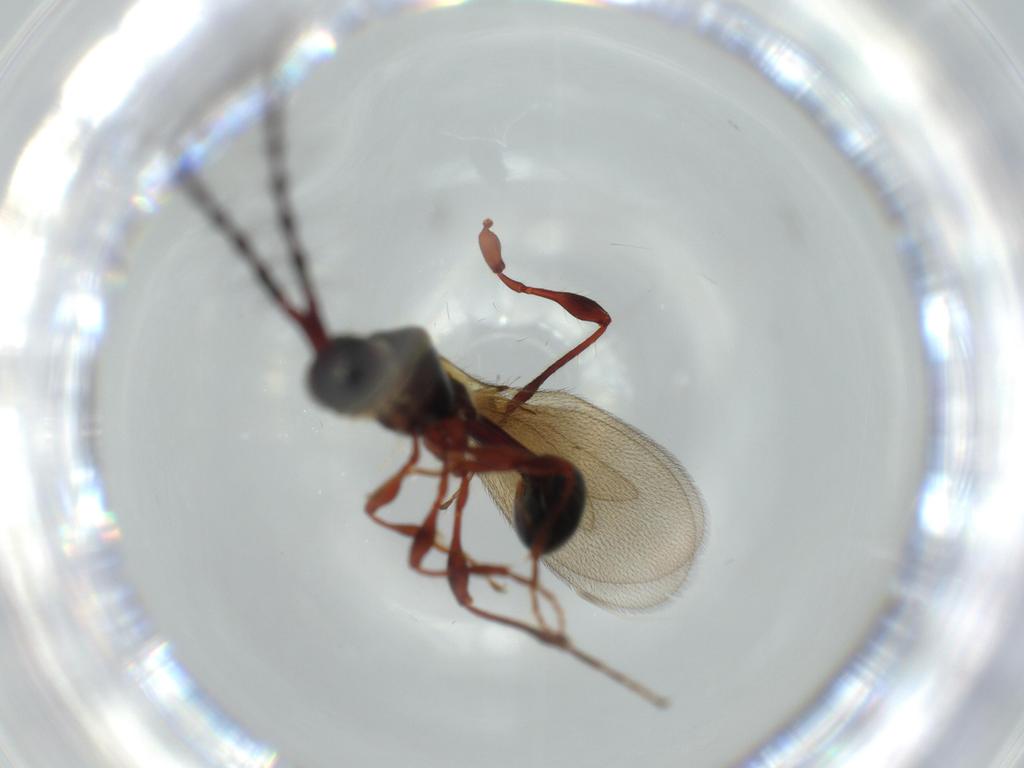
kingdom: Animalia
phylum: Arthropoda
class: Insecta
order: Hymenoptera
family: Diapriidae
